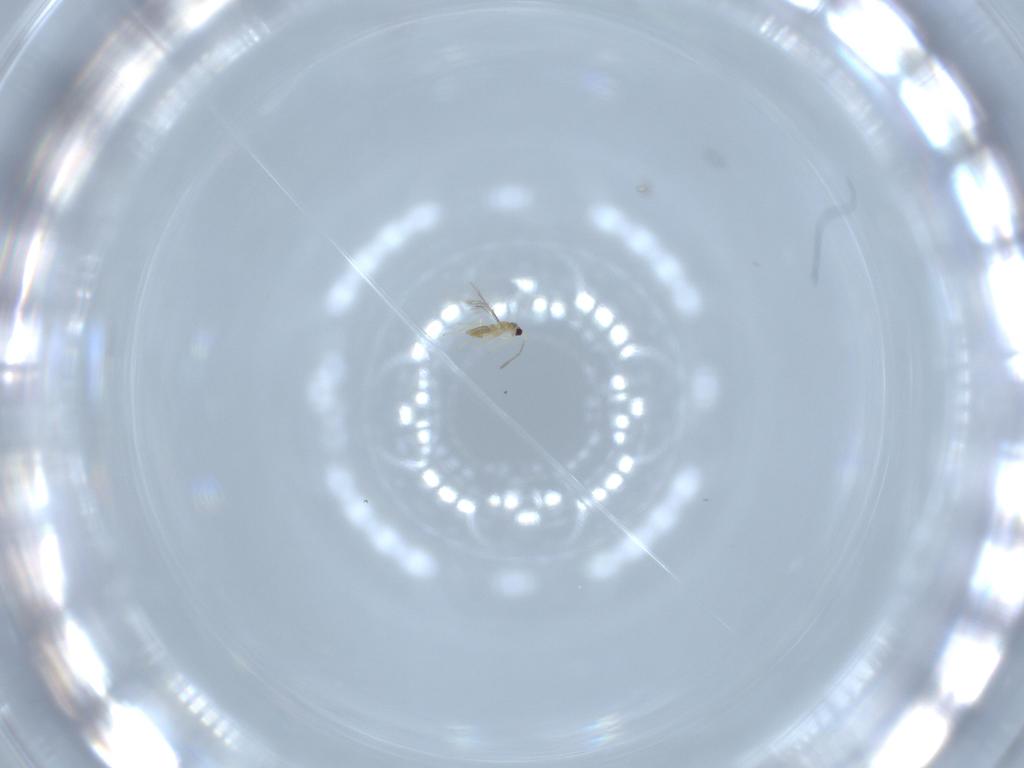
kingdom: Animalia
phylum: Arthropoda
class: Insecta
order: Hymenoptera
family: Mymaridae
